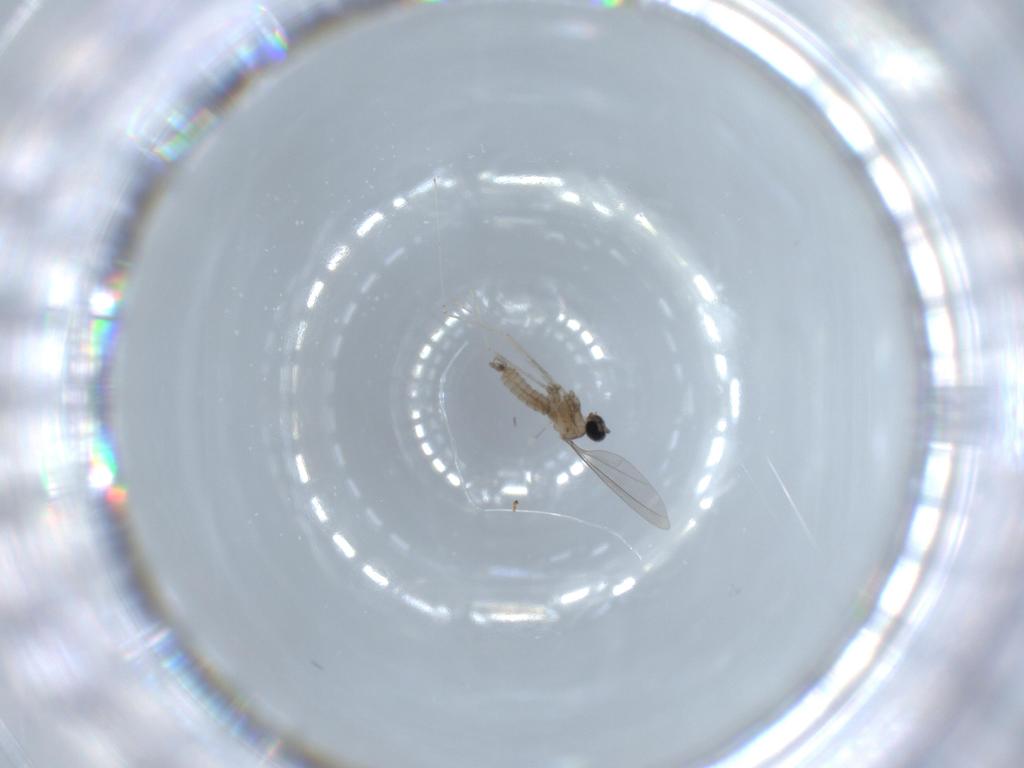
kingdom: Animalia
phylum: Arthropoda
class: Insecta
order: Diptera
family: Cecidomyiidae
